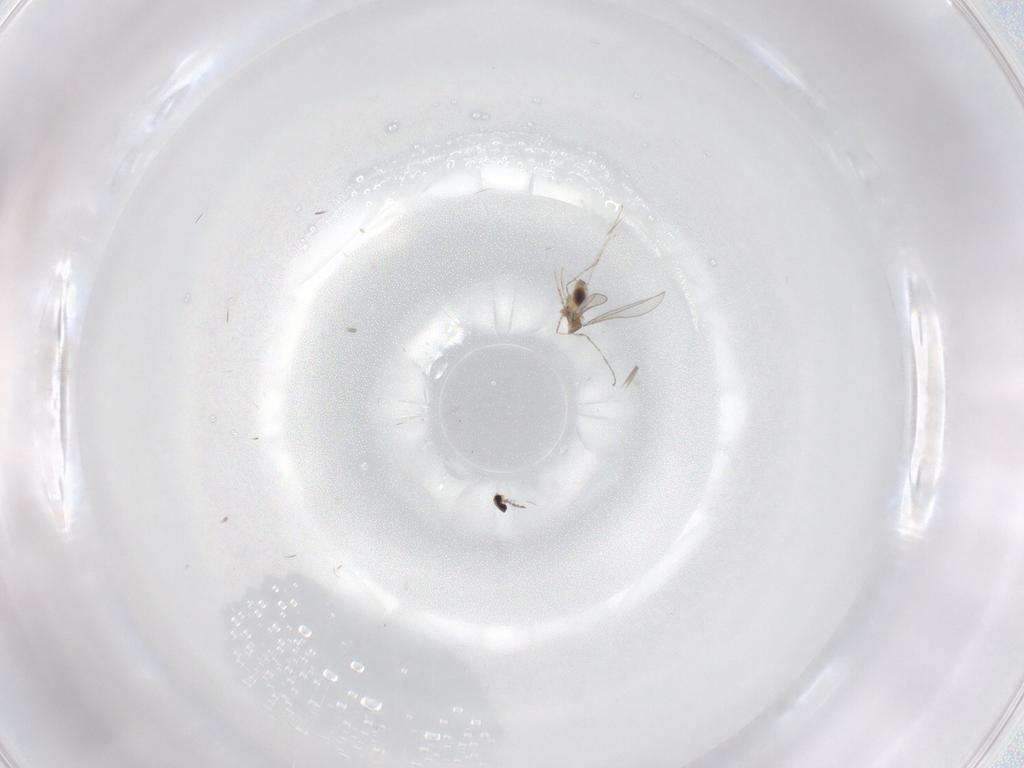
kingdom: Animalia
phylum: Arthropoda
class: Insecta
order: Diptera
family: Cecidomyiidae
